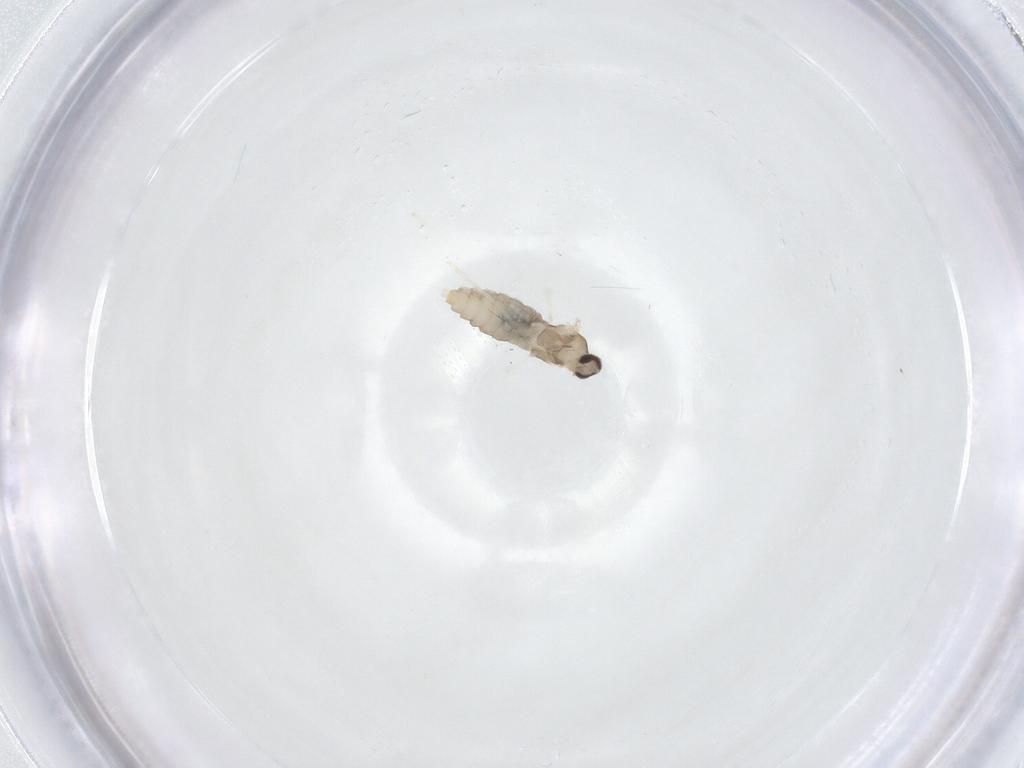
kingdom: Animalia
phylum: Arthropoda
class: Insecta
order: Diptera
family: Cecidomyiidae
